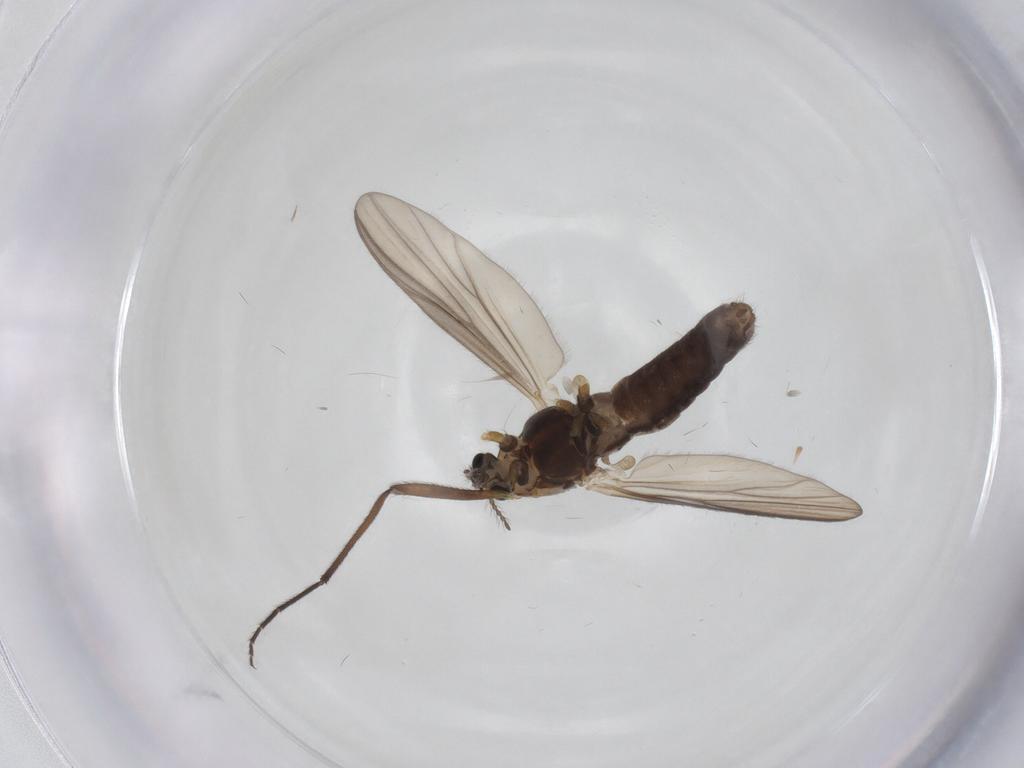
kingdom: Animalia
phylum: Arthropoda
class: Insecta
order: Diptera
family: Chironomidae
